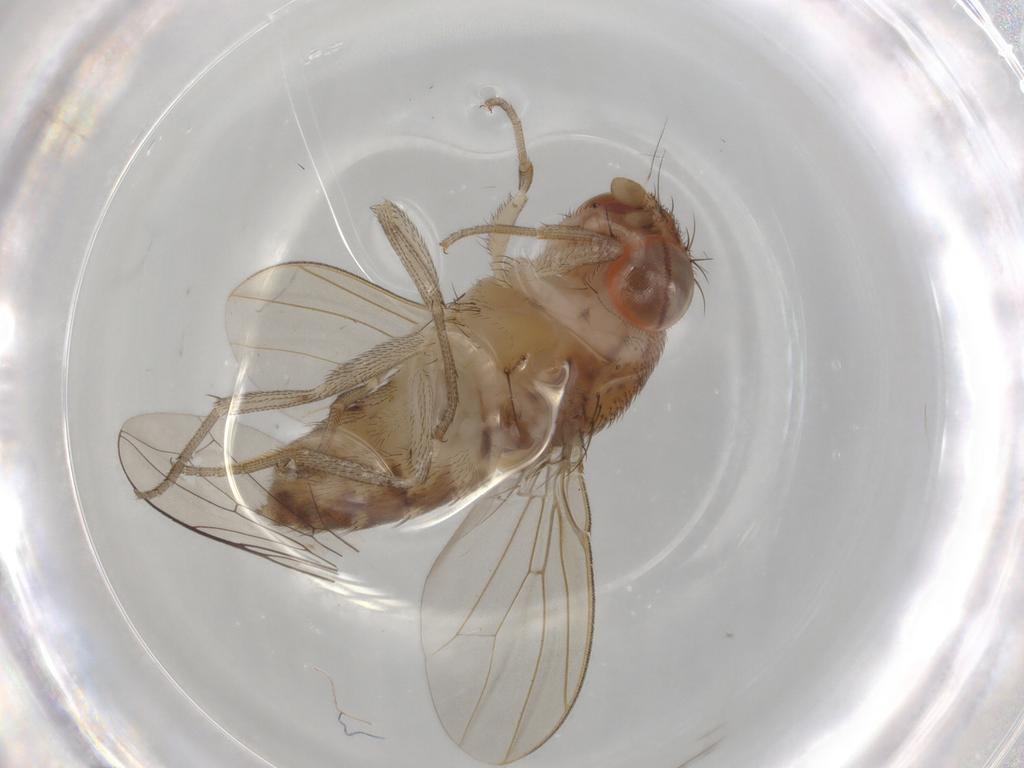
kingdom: Animalia
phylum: Arthropoda
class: Insecta
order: Diptera
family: Drosophilidae
